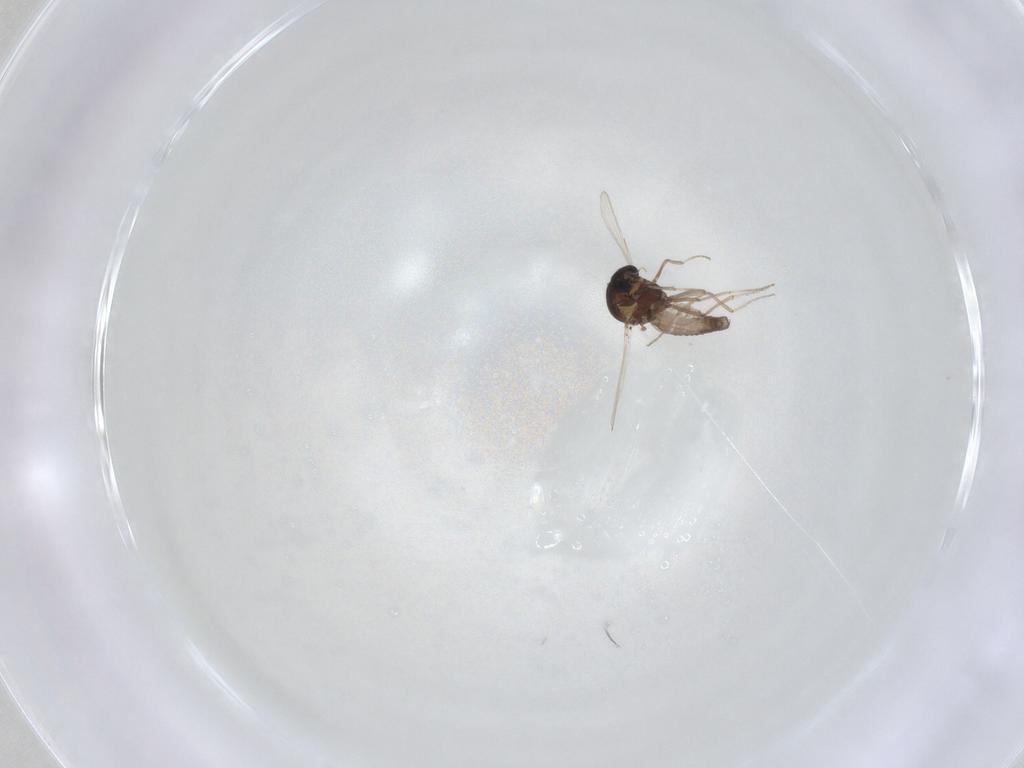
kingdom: Animalia
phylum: Arthropoda
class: Insecta
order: Diptera
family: Ceratopogonidae
